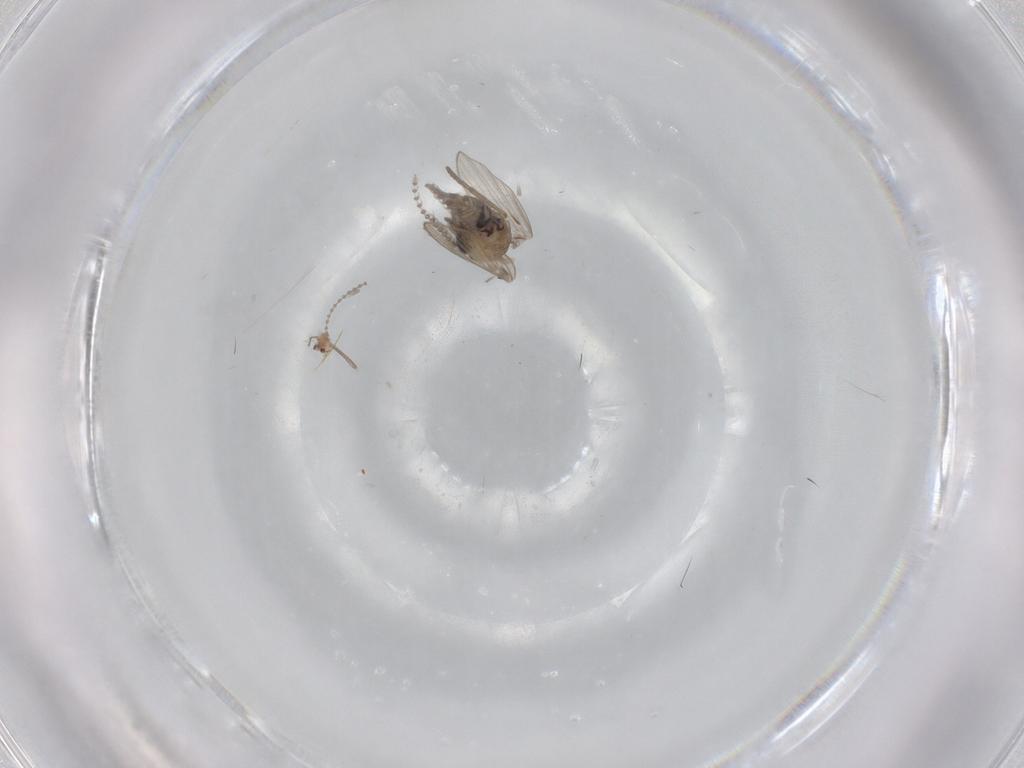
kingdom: Animalia
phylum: Arthropoda
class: Insecta
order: Diptera
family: Psychodidae
